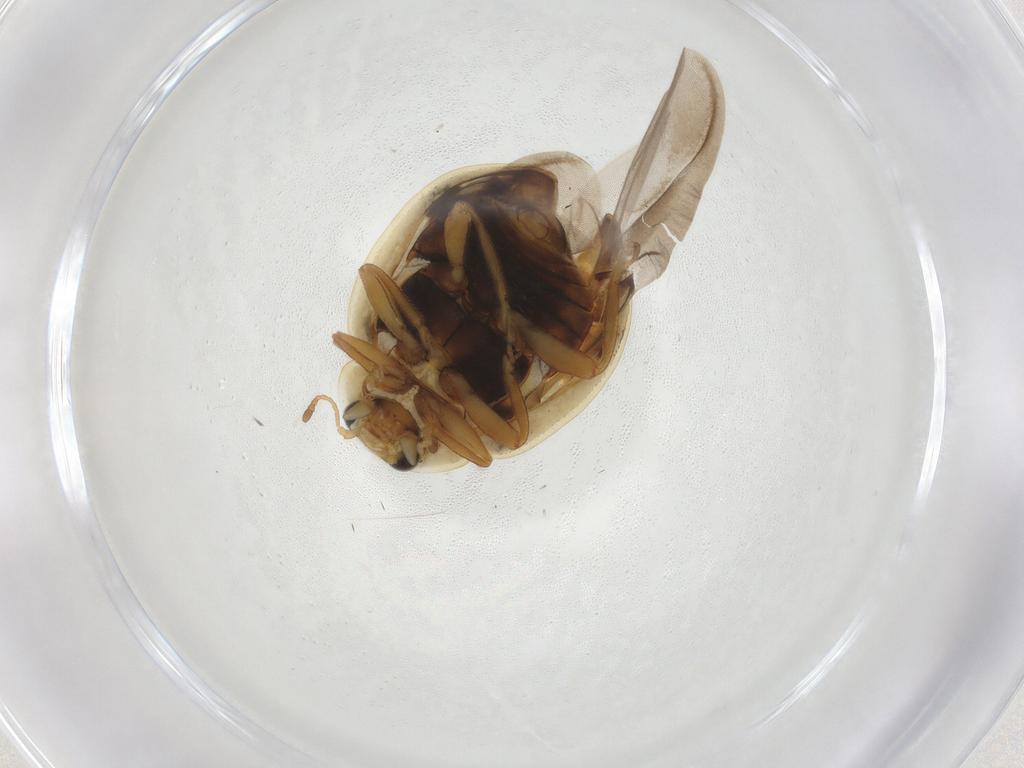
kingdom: Animalia
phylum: Arthropoda
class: Insecta
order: Coleoptera
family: Coccinellidae
